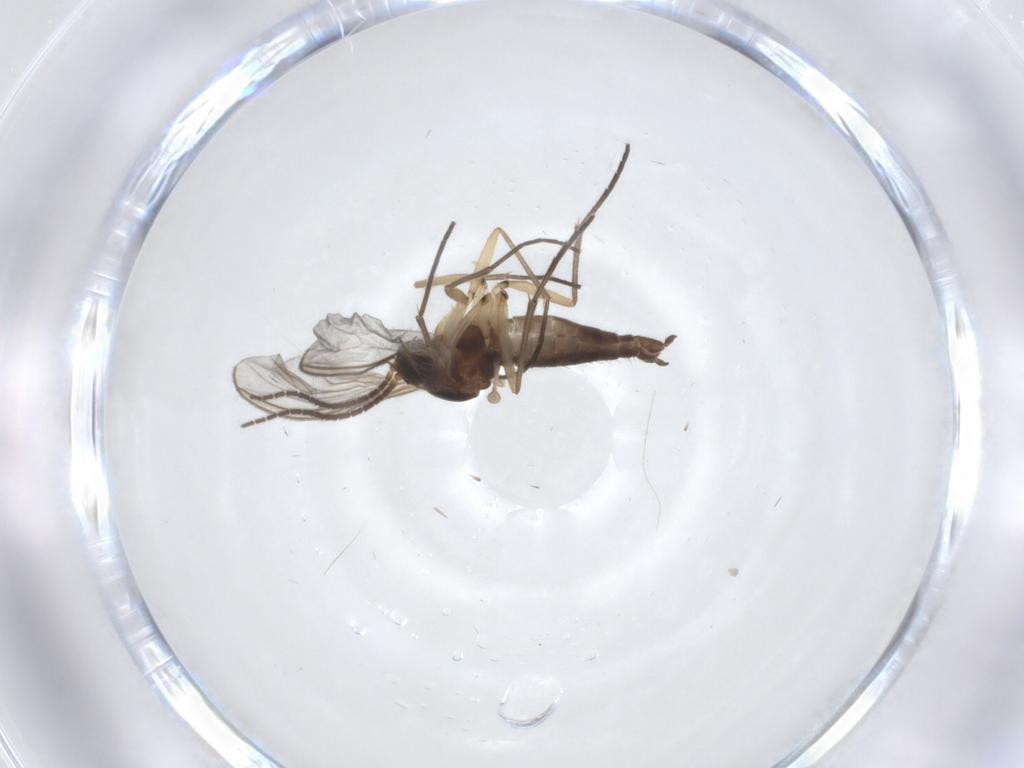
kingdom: Animalia
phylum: Arthropoda
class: Insecta
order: Diptera
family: Sciaridae
